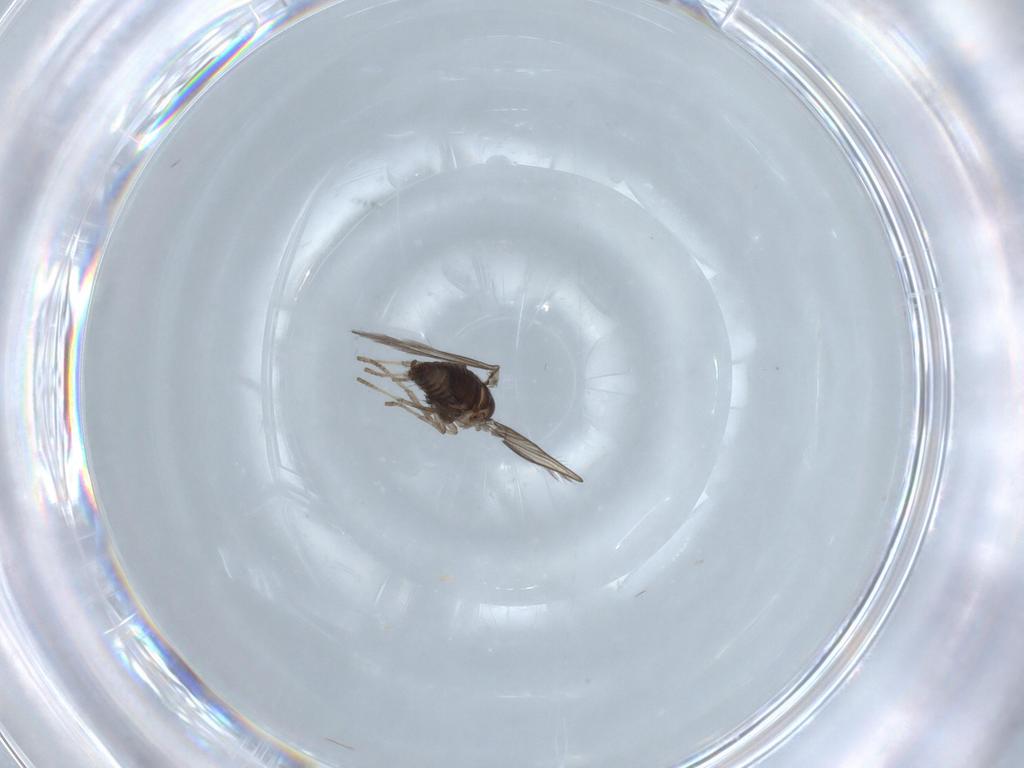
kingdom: Animalia
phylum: Arthropoda
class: Insecta
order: Diptera
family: Psychodidae
